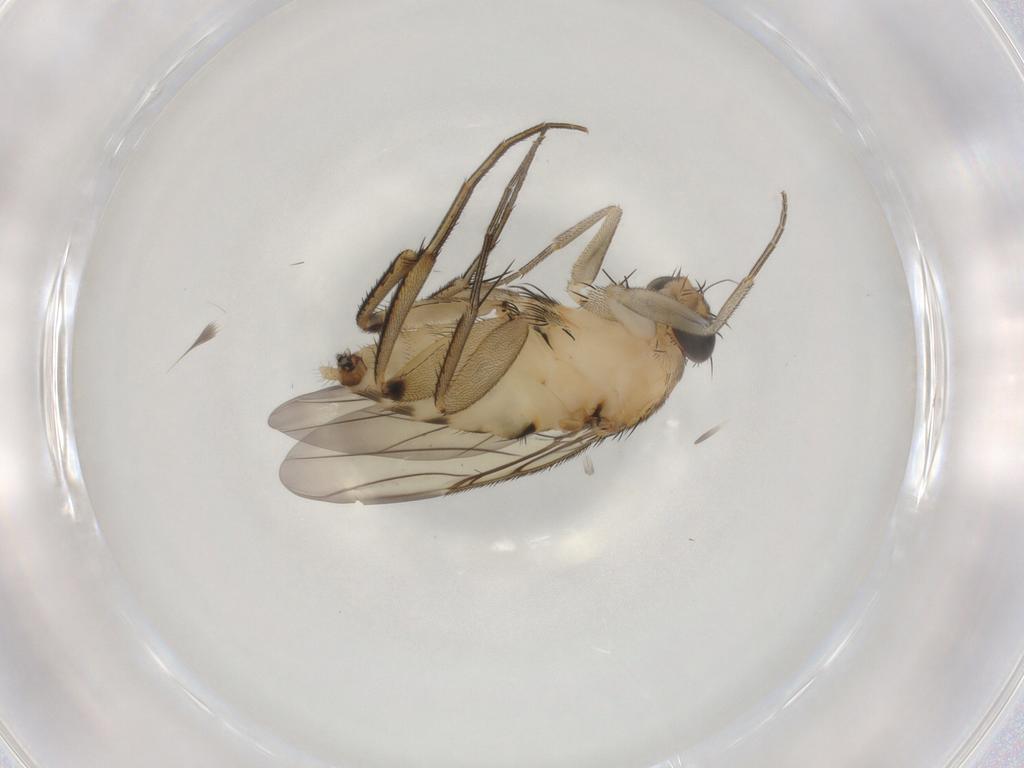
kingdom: Animalia
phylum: Arthropoda
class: Insecta
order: Diptera
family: Phoridae
